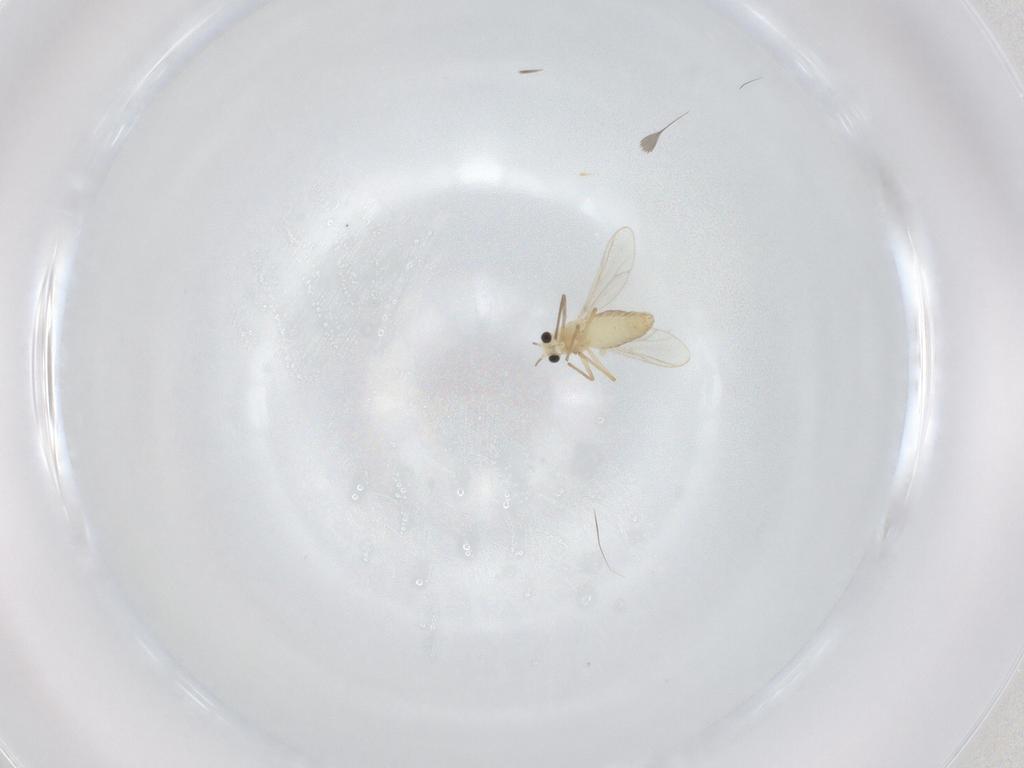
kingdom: Animalia
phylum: Arthropoda
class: Insecta
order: Diptera
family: Chironomidae
